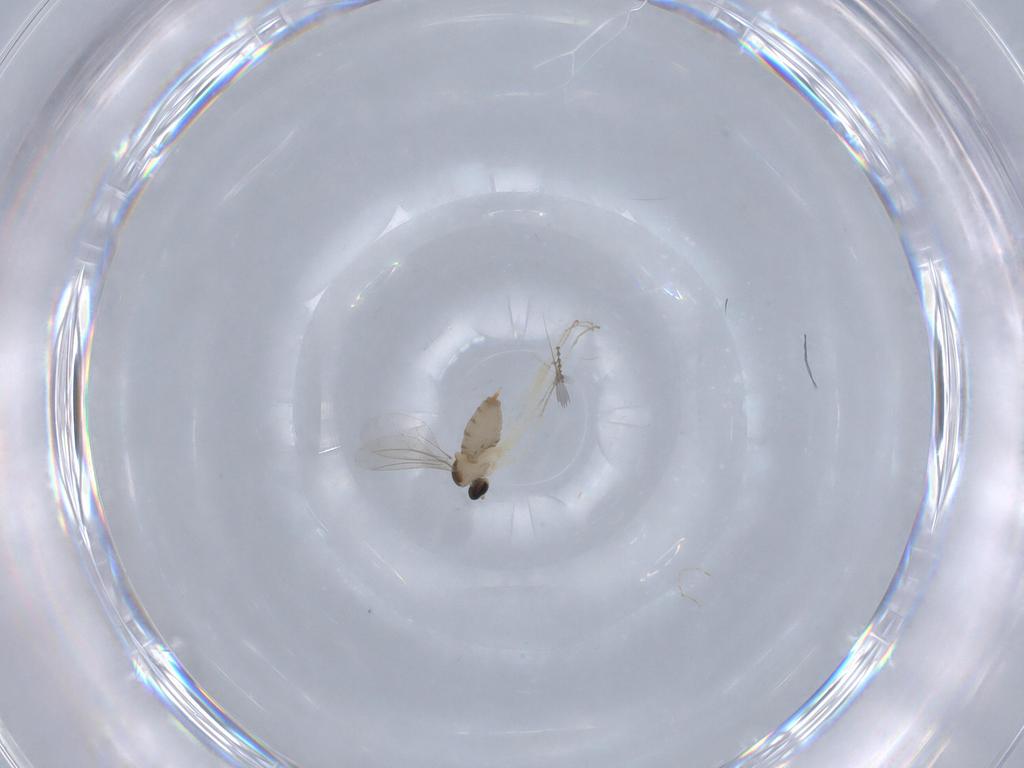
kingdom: Animalia
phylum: Arthropoda
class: Insecta
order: Diptera
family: Cecidomyiidae
